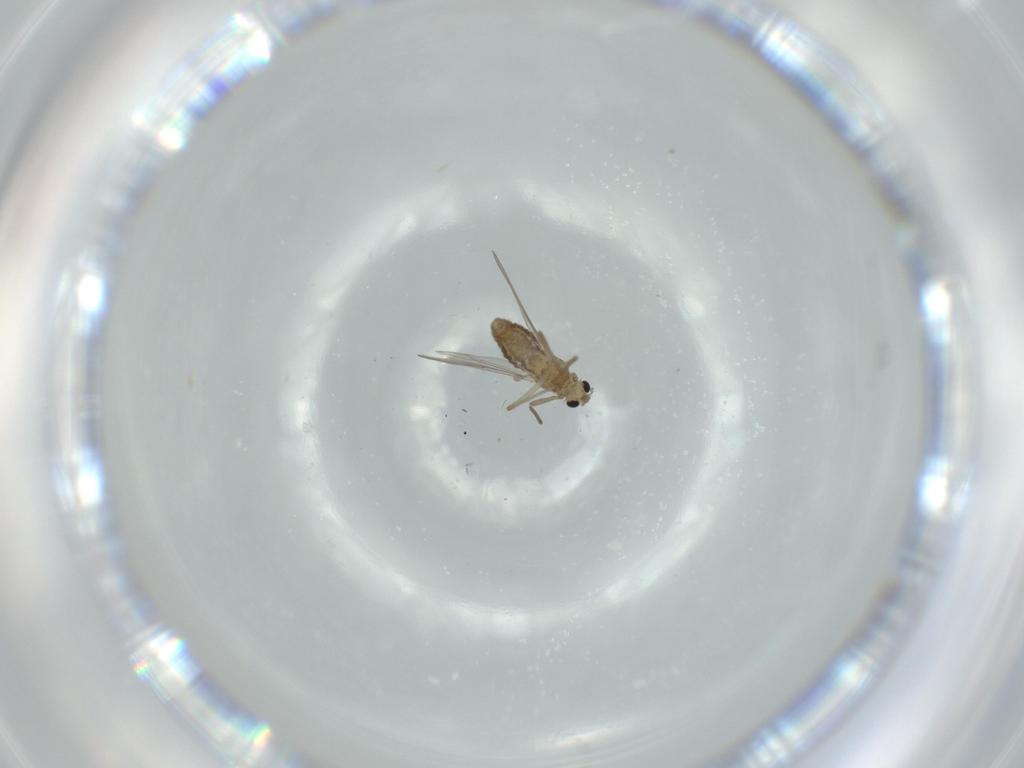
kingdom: Animalia
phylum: Arthropoda
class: Insecta
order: Diptera
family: Chironomidae
